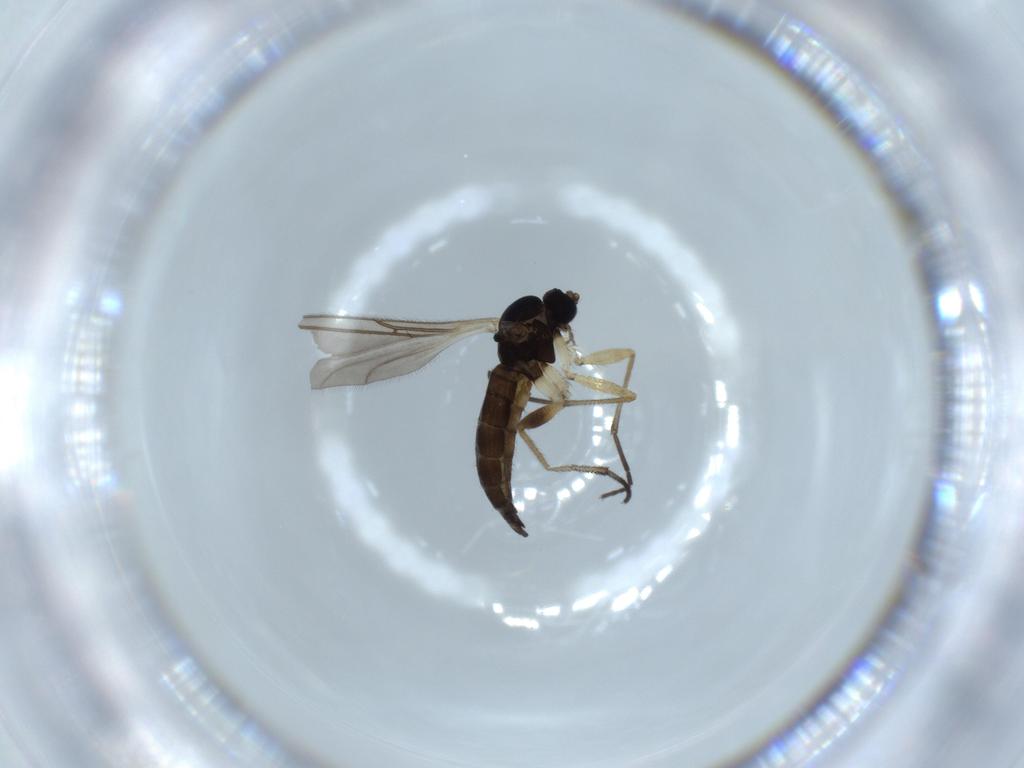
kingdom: Animalia
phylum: Arthropoda
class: Insecta
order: Diptera
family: Sciaridae
